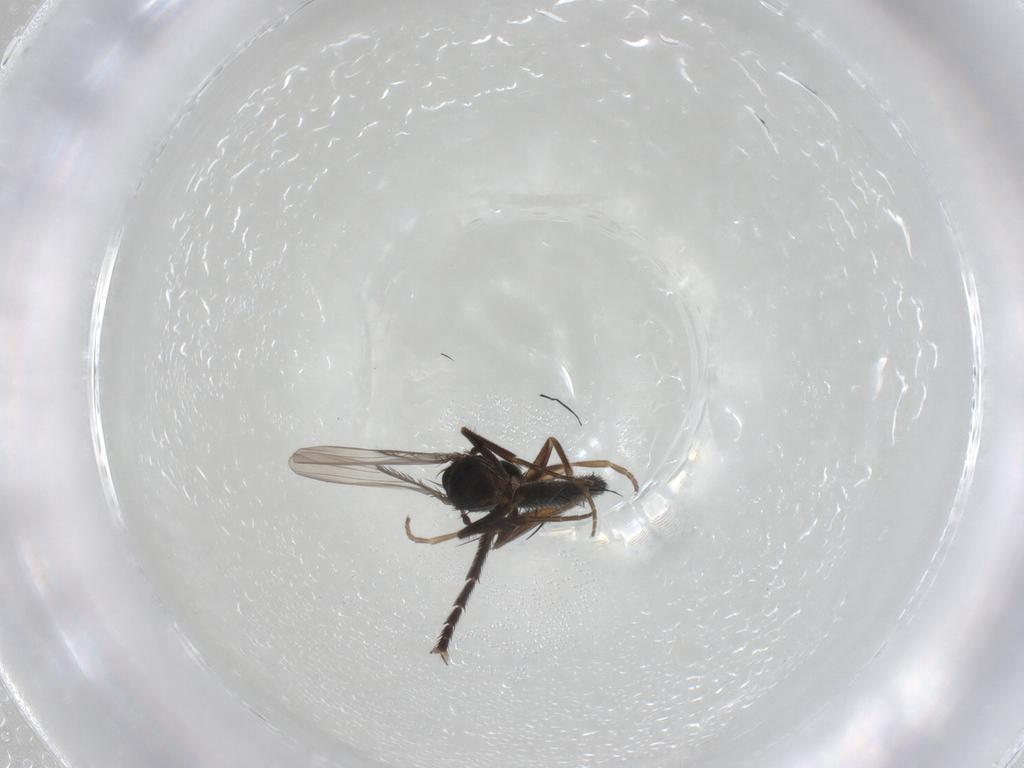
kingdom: Animalia
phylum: Arthropoda
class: Insecta
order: Diptera
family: Phoridae
